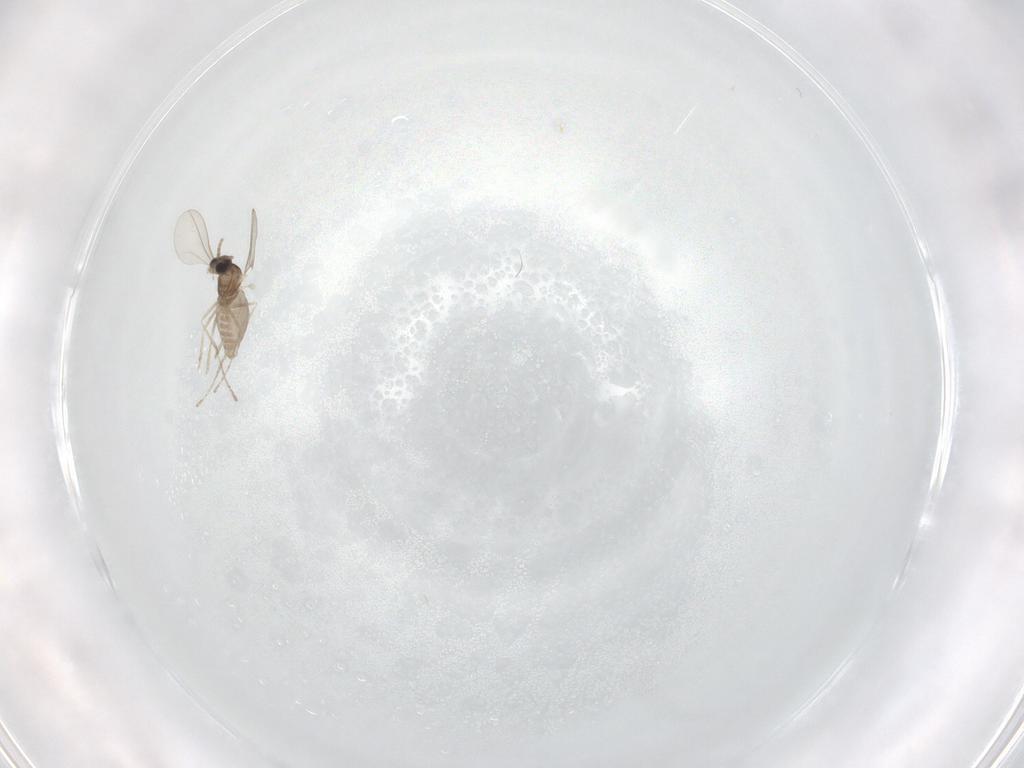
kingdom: Animalia
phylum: Arthropoda
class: Insecta
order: Diptera
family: Cecidomyiidae
